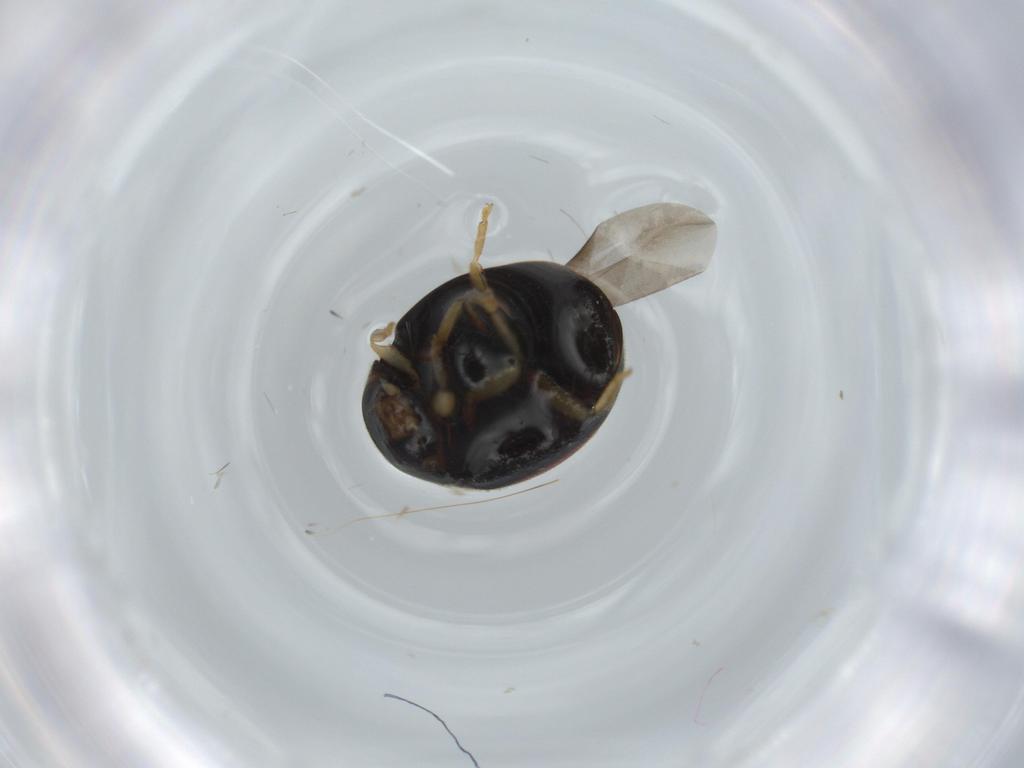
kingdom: Animalia
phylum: Arthropoda
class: Insecta
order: Coleoptera
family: Coccinellidae
